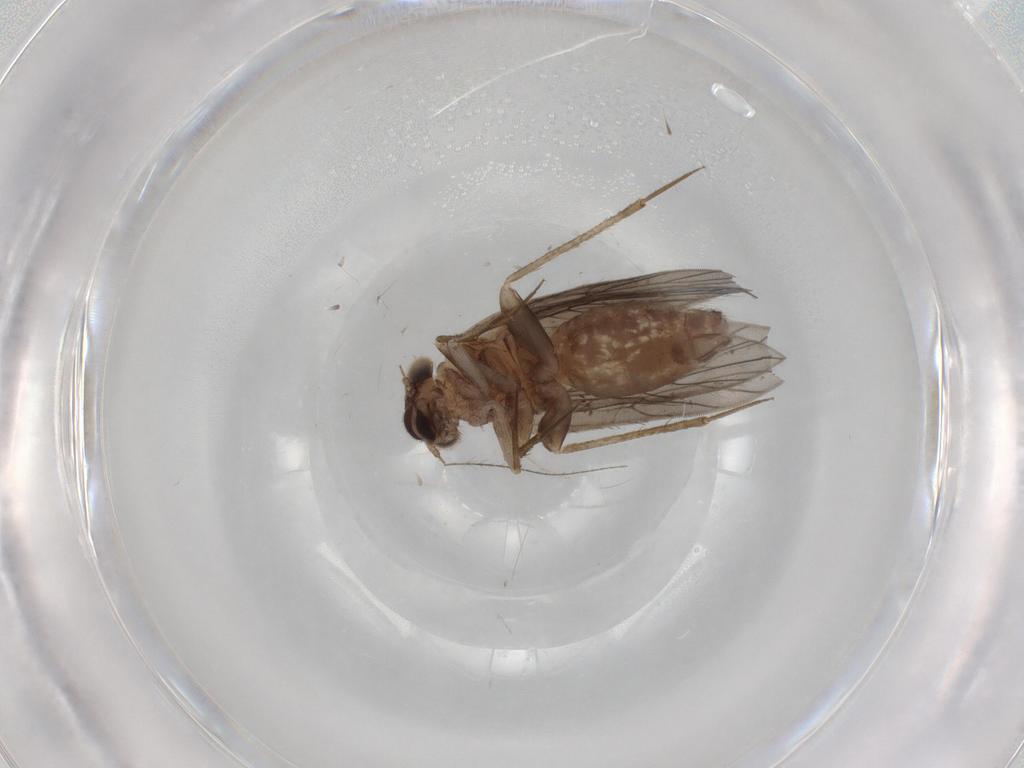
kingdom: Animalia
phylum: Arthropoda
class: Insecta
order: Psocodea
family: Lepidopsocidae
